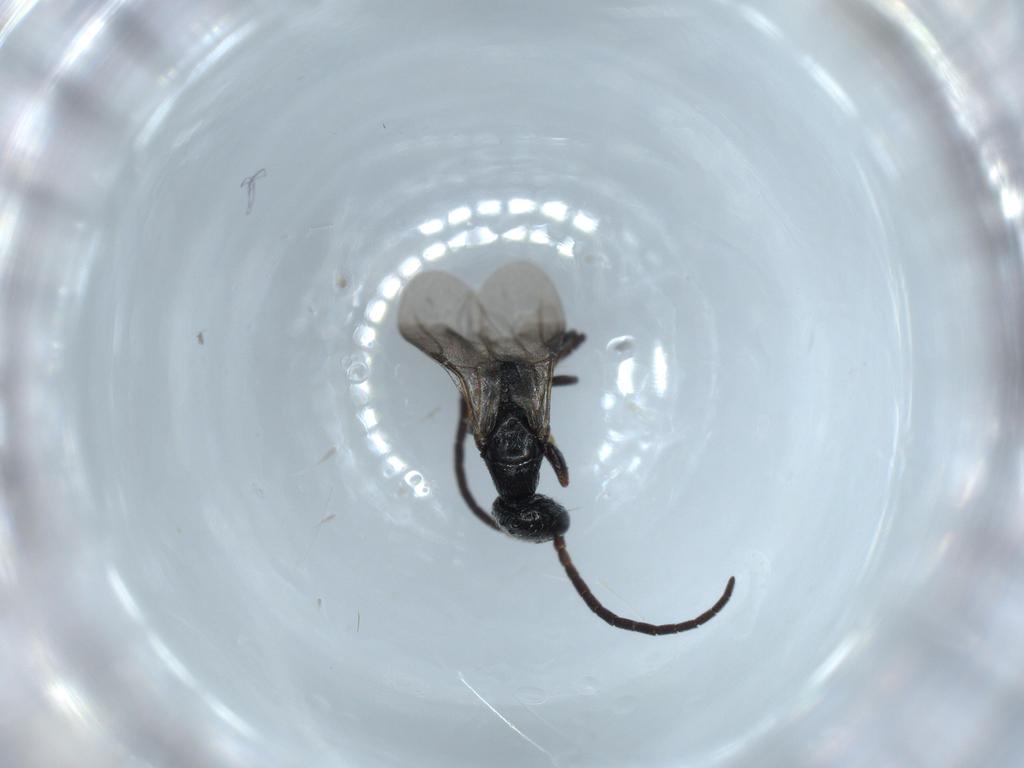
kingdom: Animalia
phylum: Arthropoda
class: Insecta
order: Hymenoptera
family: Bethylidae
